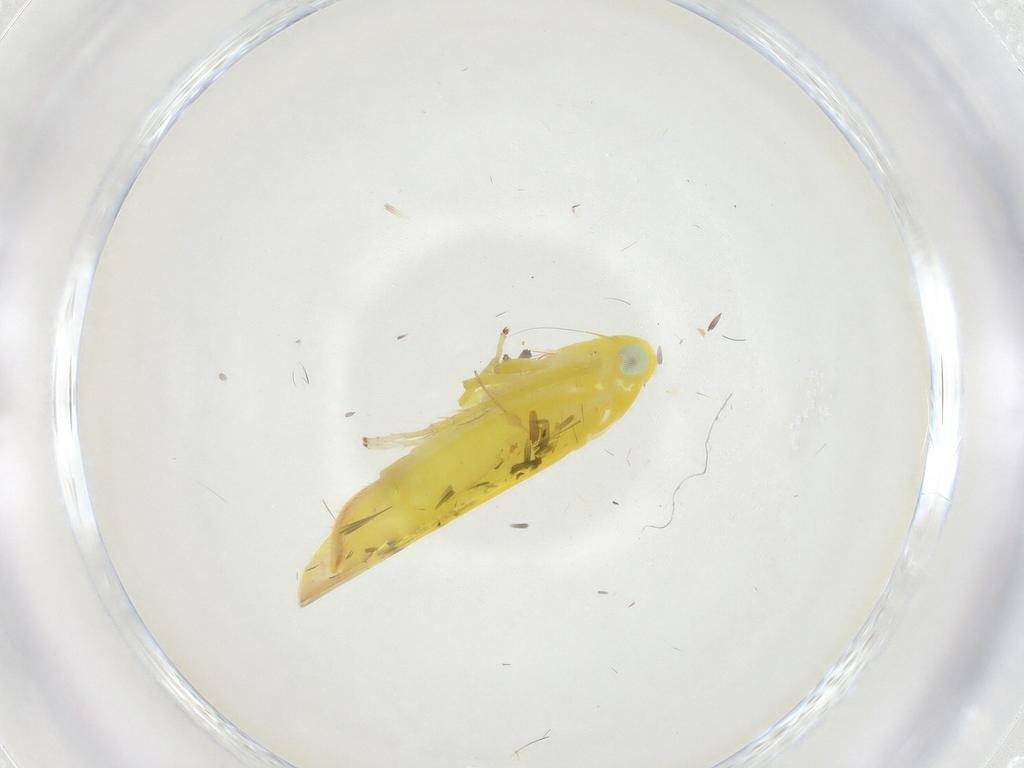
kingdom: Animalia
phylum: Arthropoda
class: Insecta
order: Hemiptera
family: Cicadellidae
